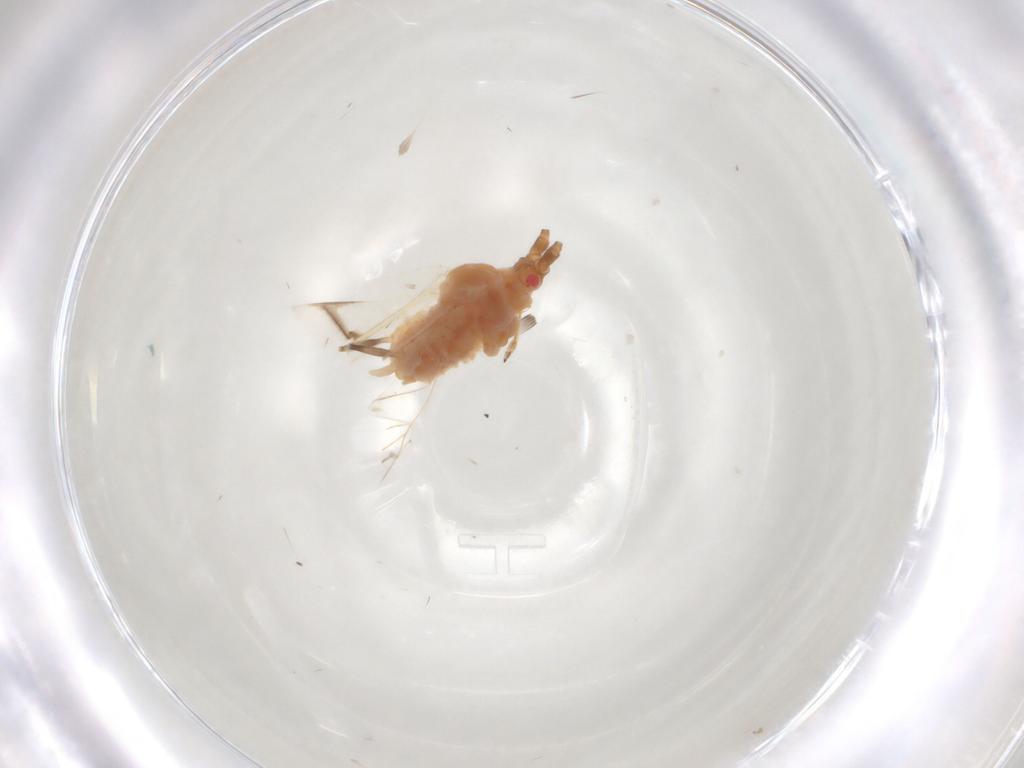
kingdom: Animalia
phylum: Arthropoda
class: Insecta
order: Hemiptera
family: Aphididae
